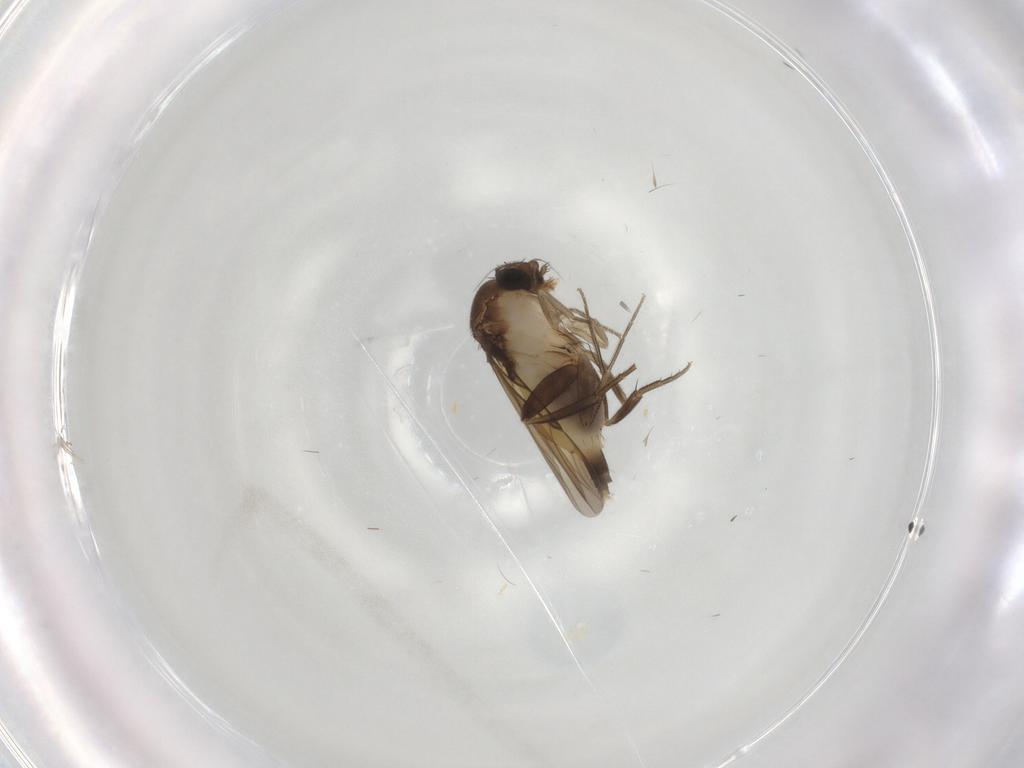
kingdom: Animalia
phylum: Arthropoda
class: Insecta
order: Diptera
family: Phoridae
